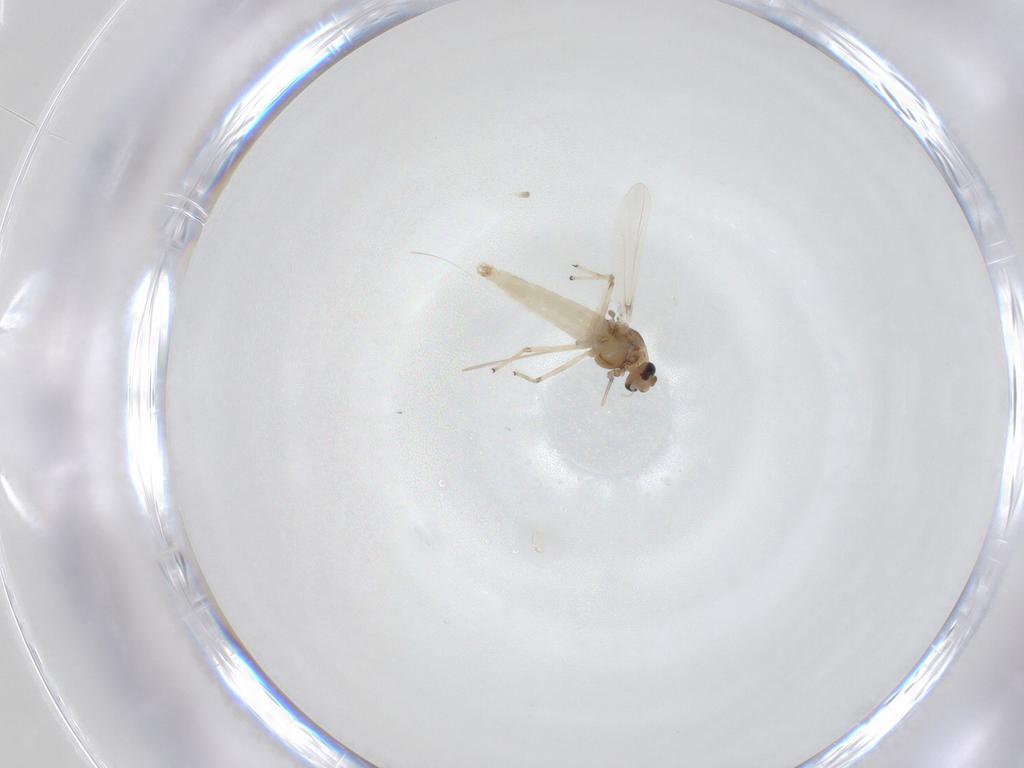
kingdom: Animalia
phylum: Arthropoda
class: Insecta
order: Diptera
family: Chironomidae
